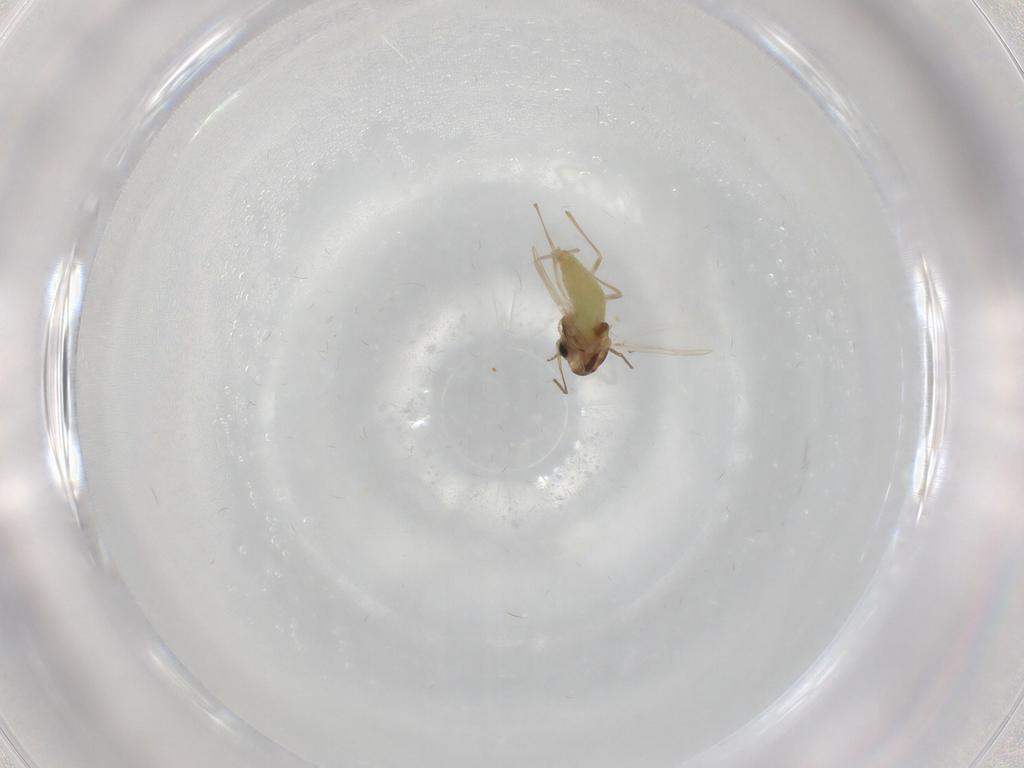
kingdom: Animalia
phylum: Arthropoda
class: Insecta
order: Diptera
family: Chironomidae
